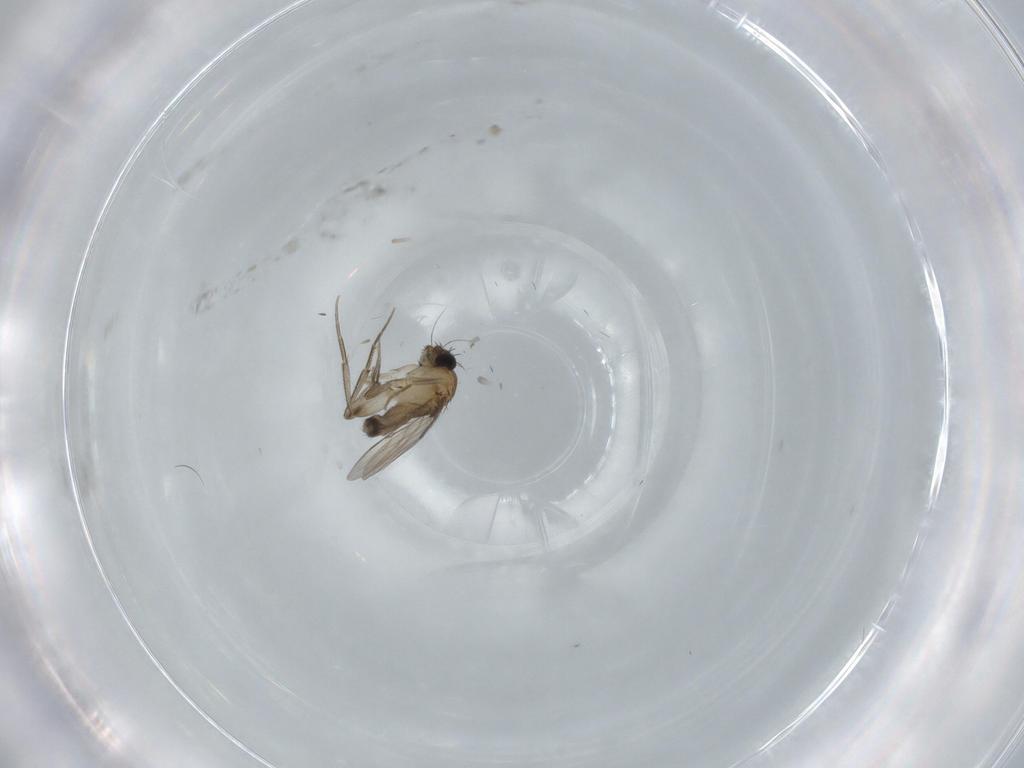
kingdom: Animalia
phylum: Arthropoda
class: Insecta
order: Diptera
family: Phoridae
